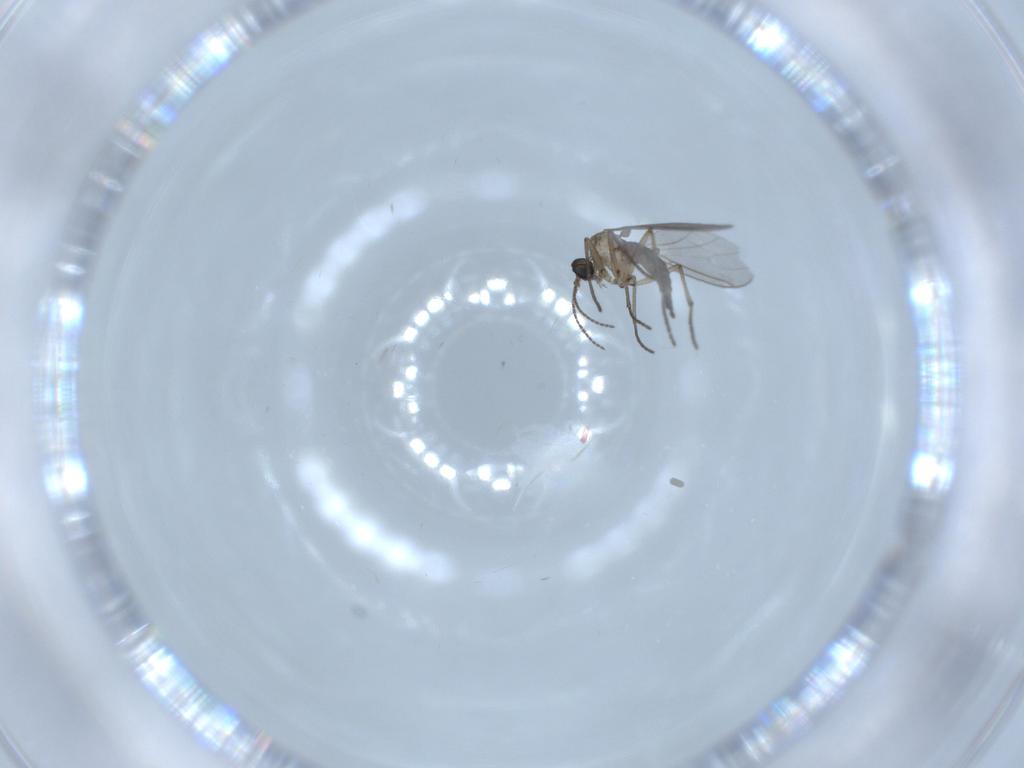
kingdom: Animalia
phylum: Arthropoda
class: Insecta
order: Diptera
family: Sciaridae
